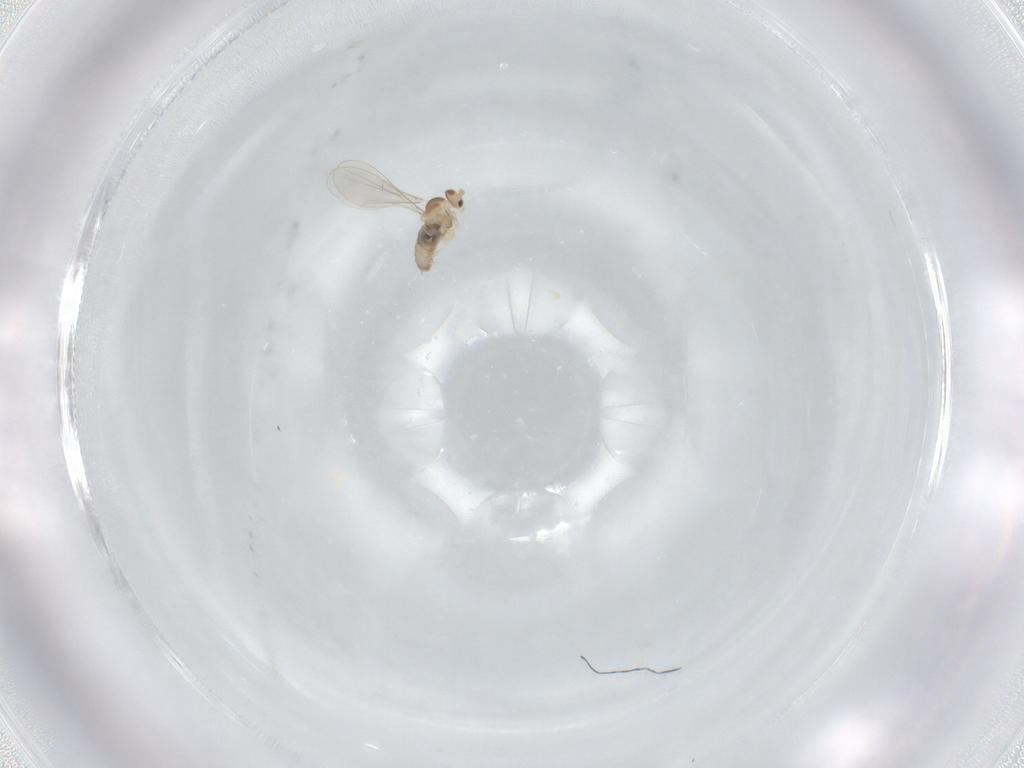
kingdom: Animalia
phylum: Arthropoda
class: Insecta
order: Diptera
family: Cecidomyiidae
